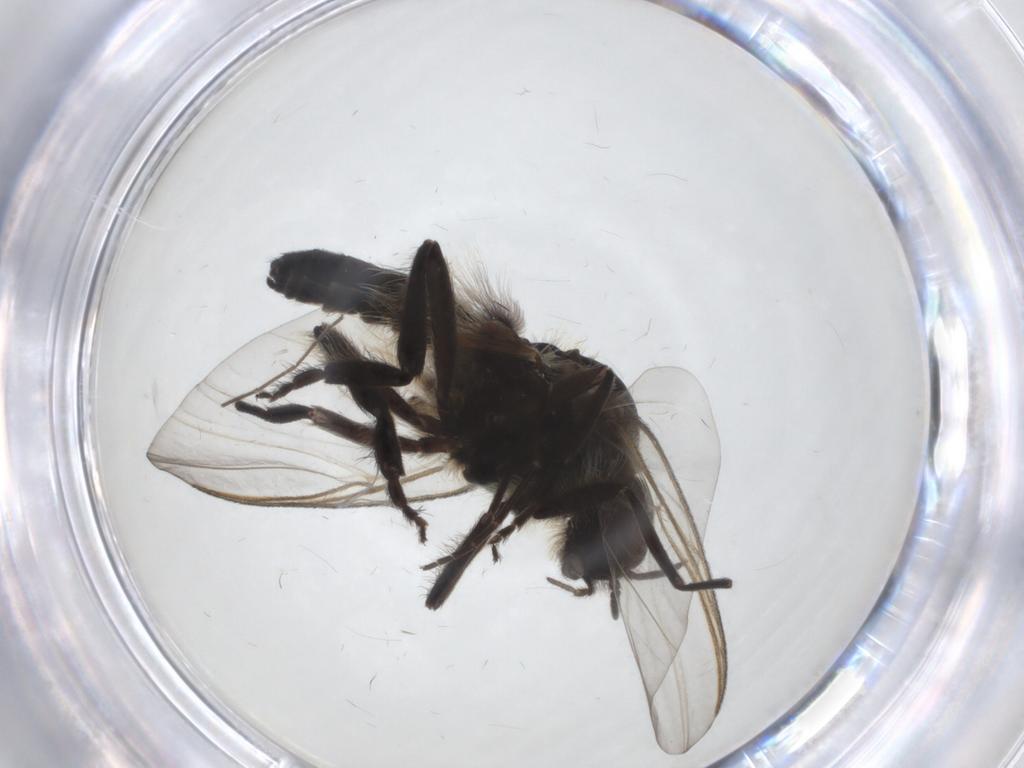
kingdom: Animalia
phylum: Arthropoda
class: Insecta
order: Diptera
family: Sciaridae
